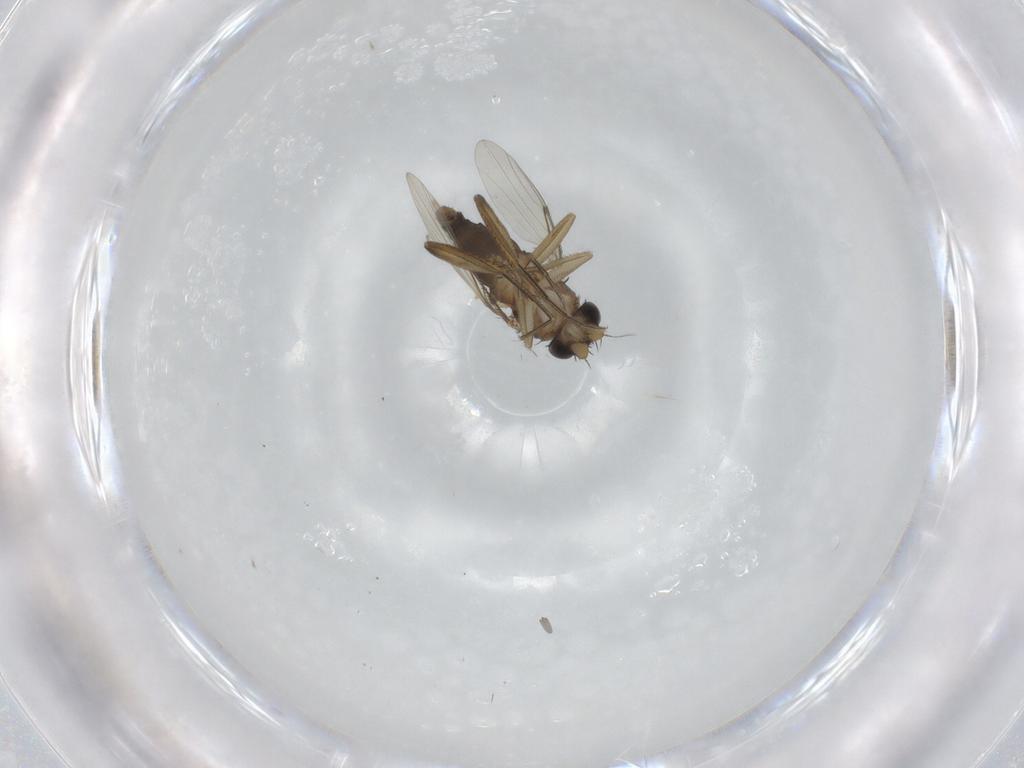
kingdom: Animalia
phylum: Arthropoda
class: Insecta
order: Diptera
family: Phoridae
